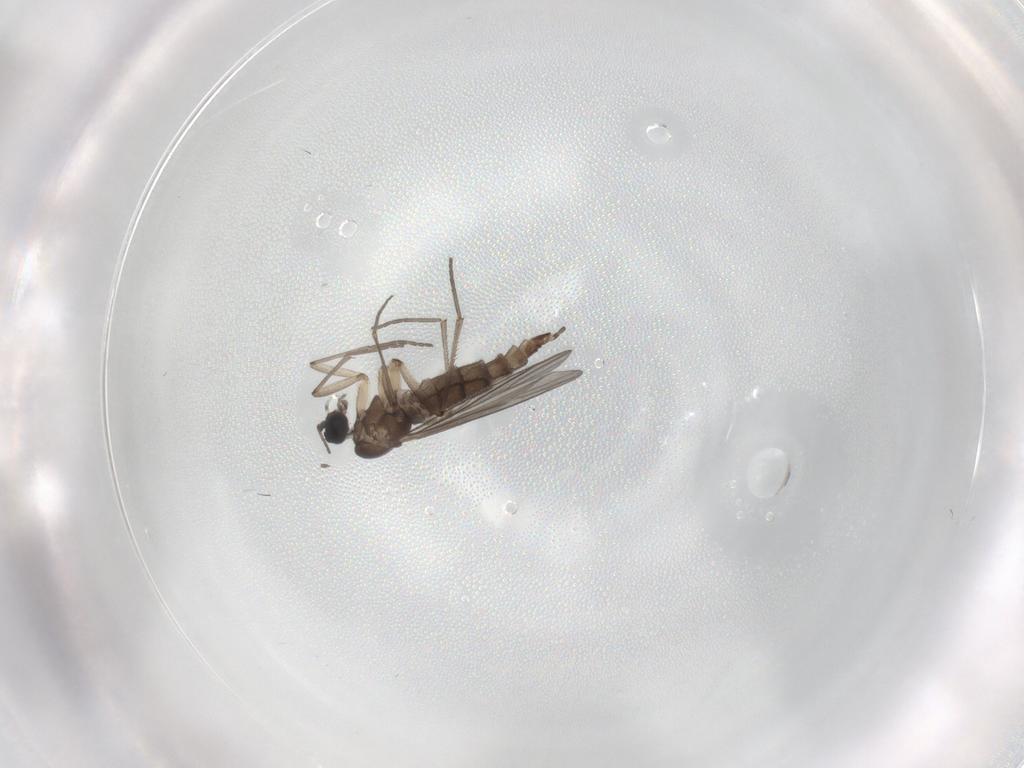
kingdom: Animalia
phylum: Arthropoda
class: Insecta
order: Diptera
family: Sciaridae
